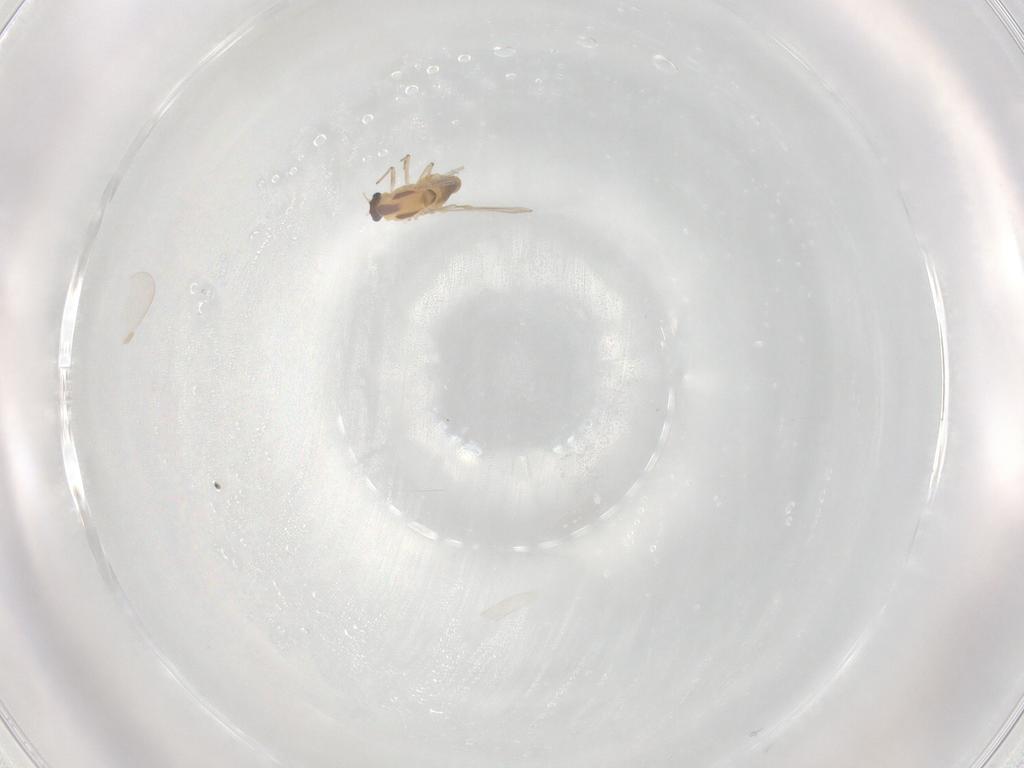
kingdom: Animalia
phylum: Arthropoda
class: Insecta
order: Diptera
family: Chironomidae
